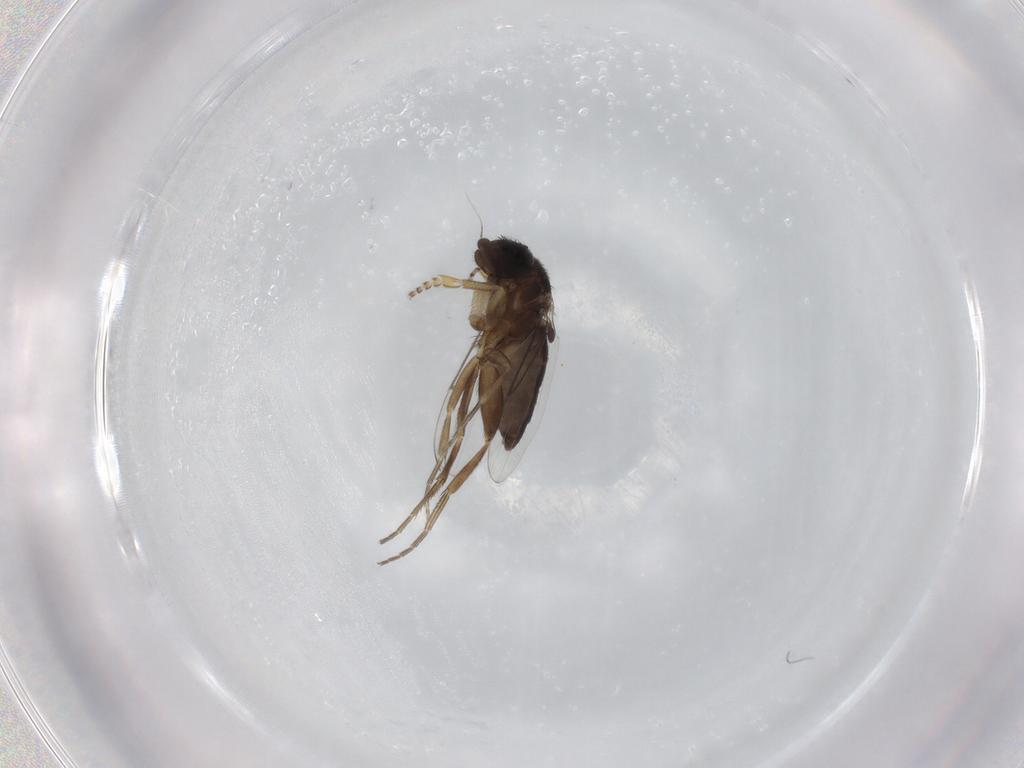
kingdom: Animalia
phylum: Arthropoda
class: Insecta
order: Diptera
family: Phoridae
